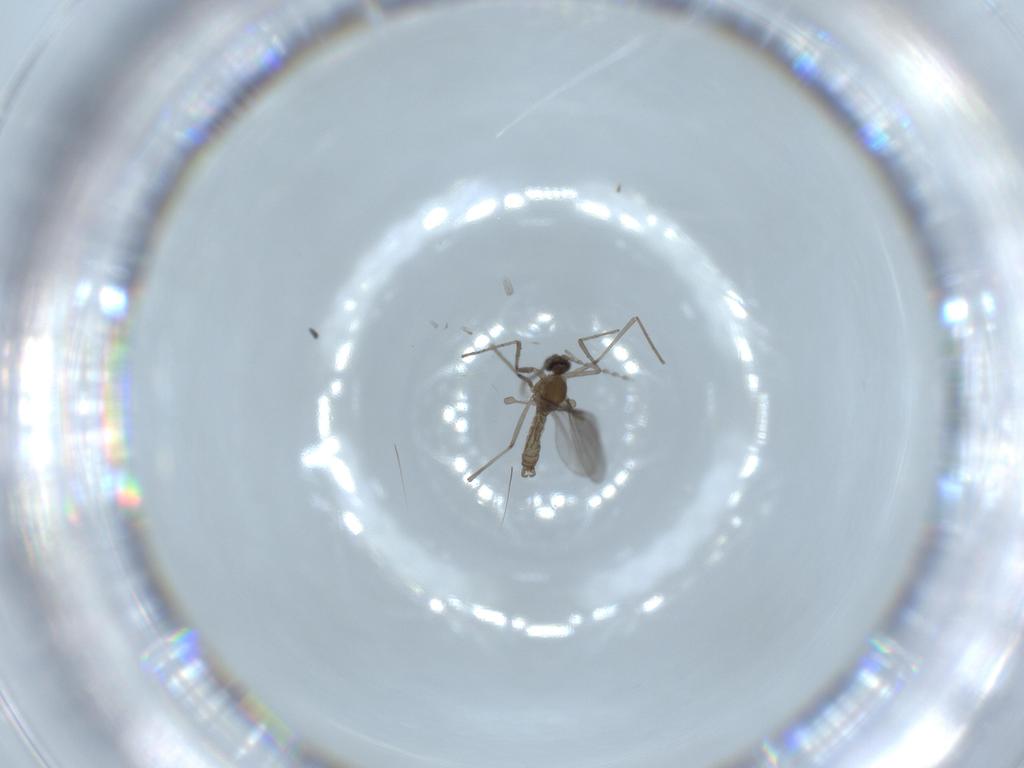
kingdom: Animalia
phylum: Arthropoda
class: Insecta
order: Diptera
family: Cecidomyiidae
